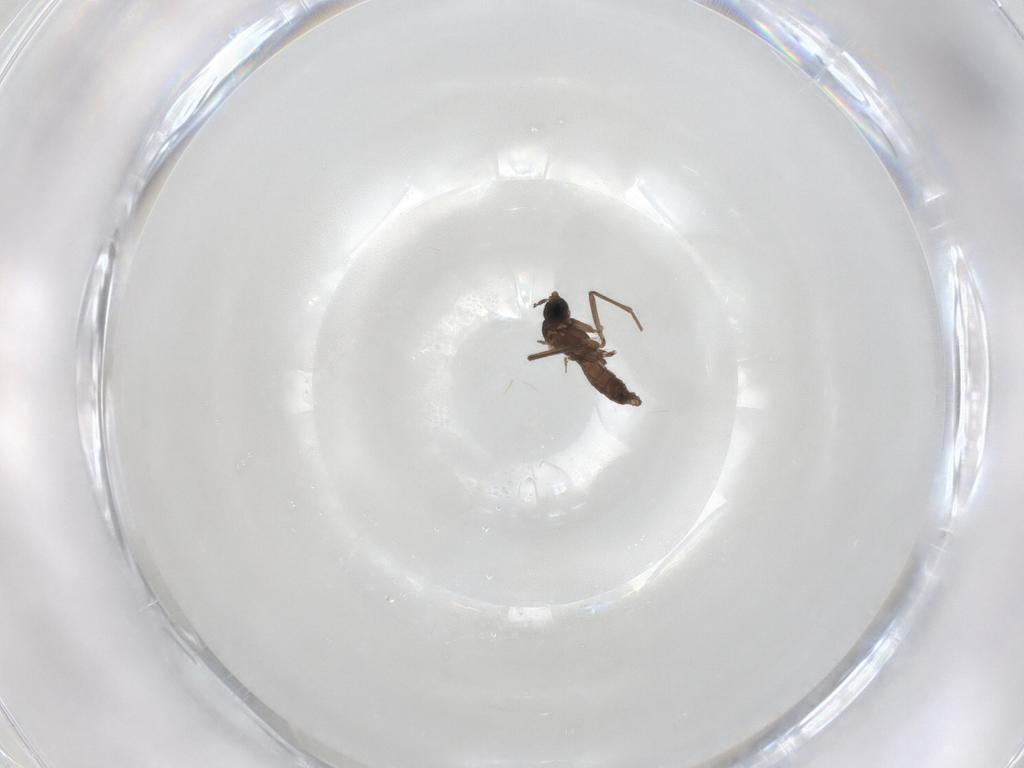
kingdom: Animalia
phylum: Arthropoda
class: Insecta
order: Diptera
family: Sciaridae
